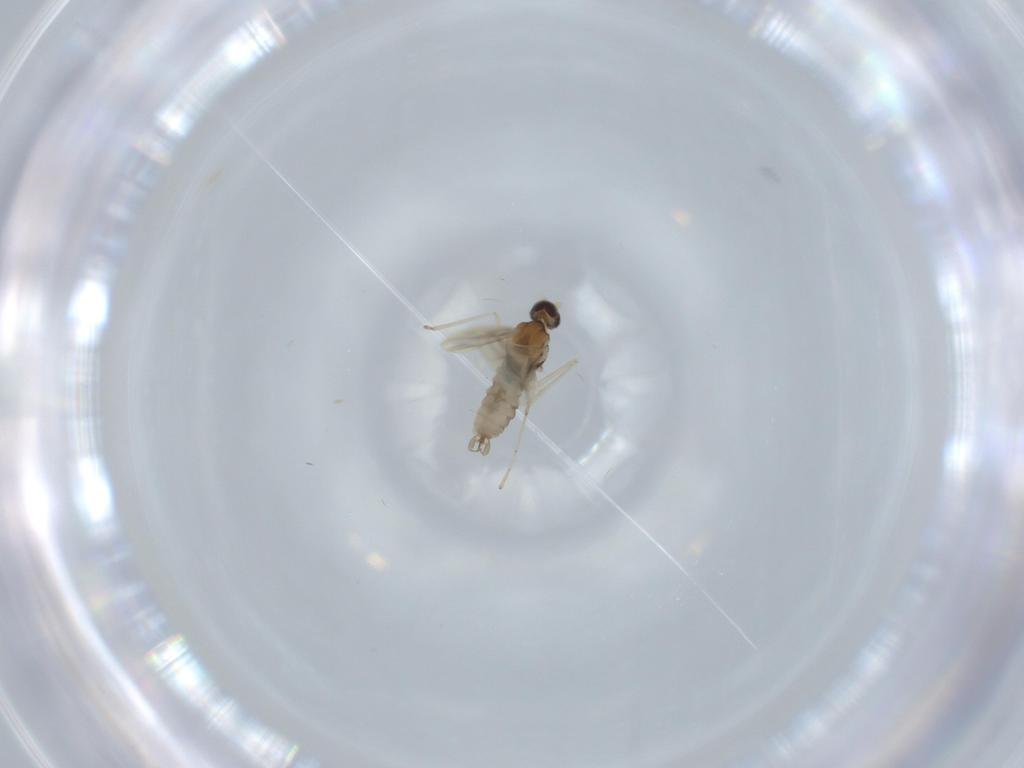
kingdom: Animalia
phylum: Arthropoda
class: Insecta
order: Diptera
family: Cecidomyiidae
